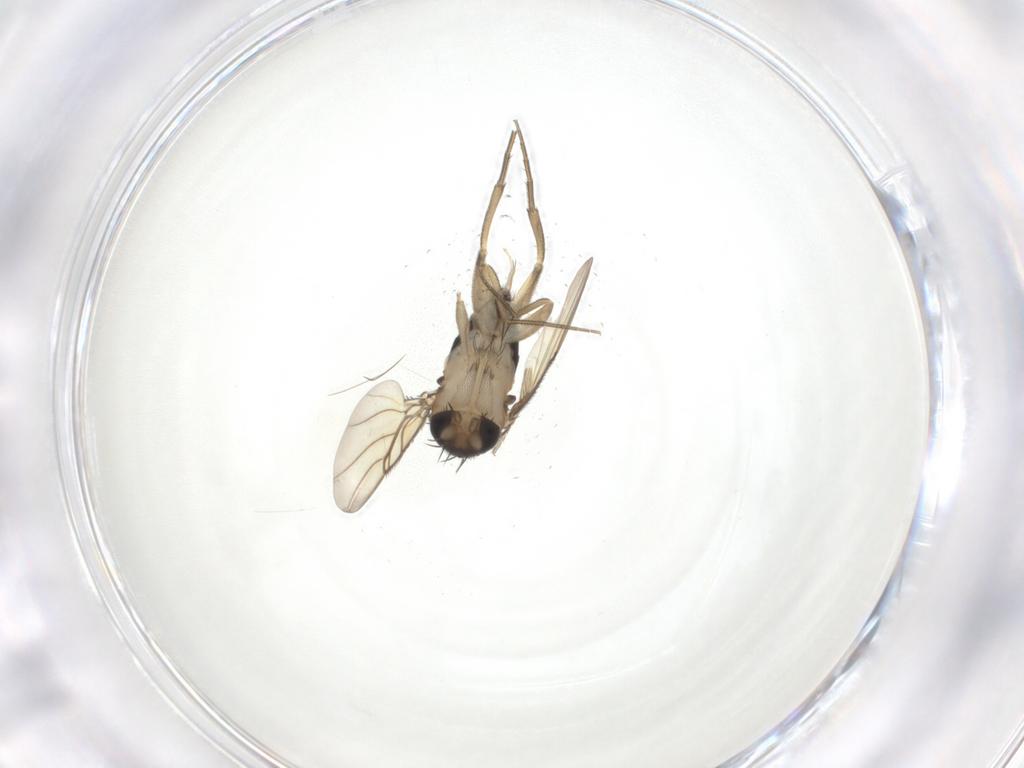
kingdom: Animalia
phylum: Arthropoda
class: Insecta
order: Diptera
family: Phoridae
